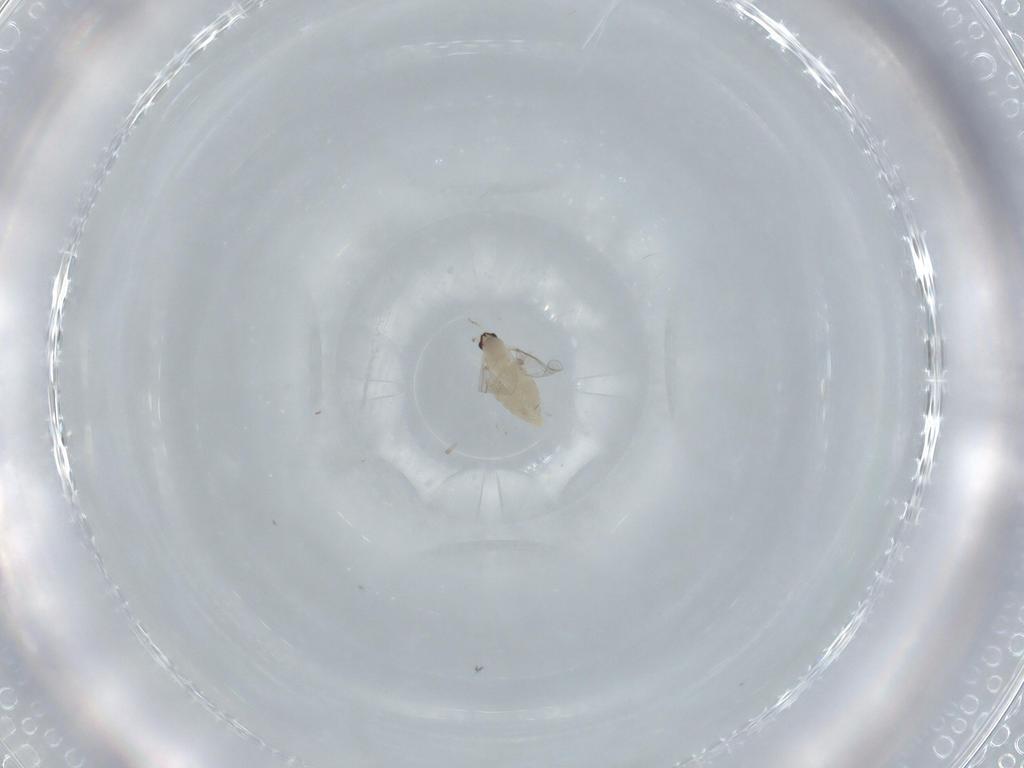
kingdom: Animalia
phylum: Arthropoda
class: Insecta
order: Diptera
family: Cecidomyiidae
